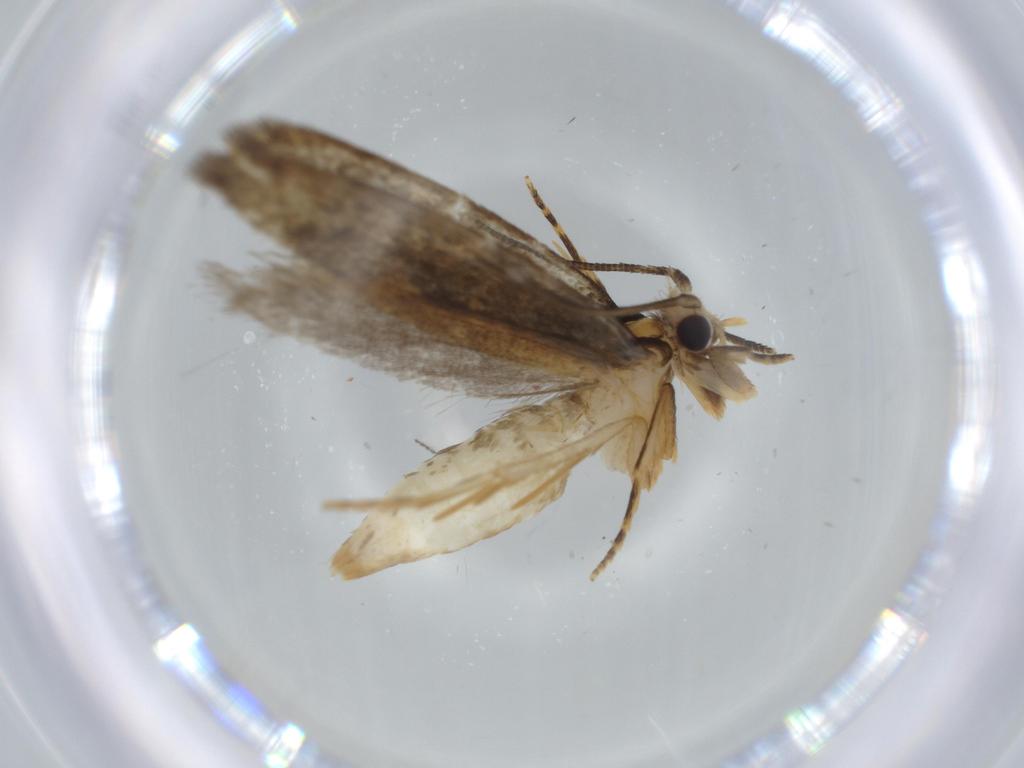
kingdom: Animalia
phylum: Arthropoda
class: Insecta
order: Lepidoptera
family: Tineidae
